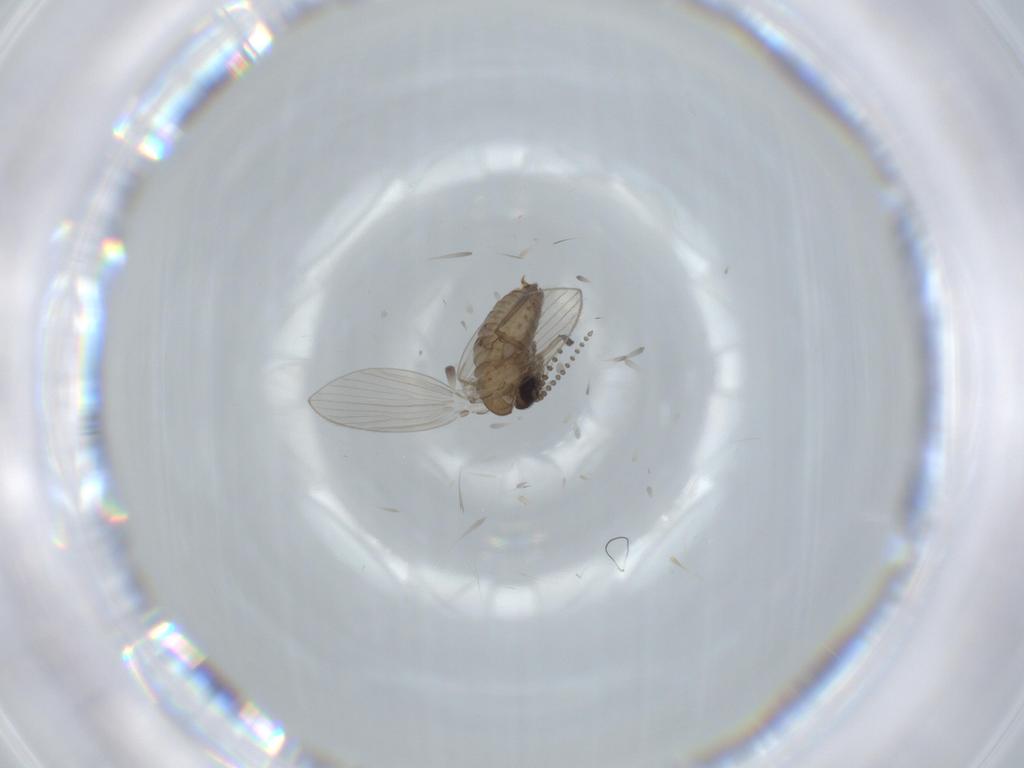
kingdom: Animalia
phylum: Arthropoda
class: Insecta
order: Diptera
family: Psychodidae
